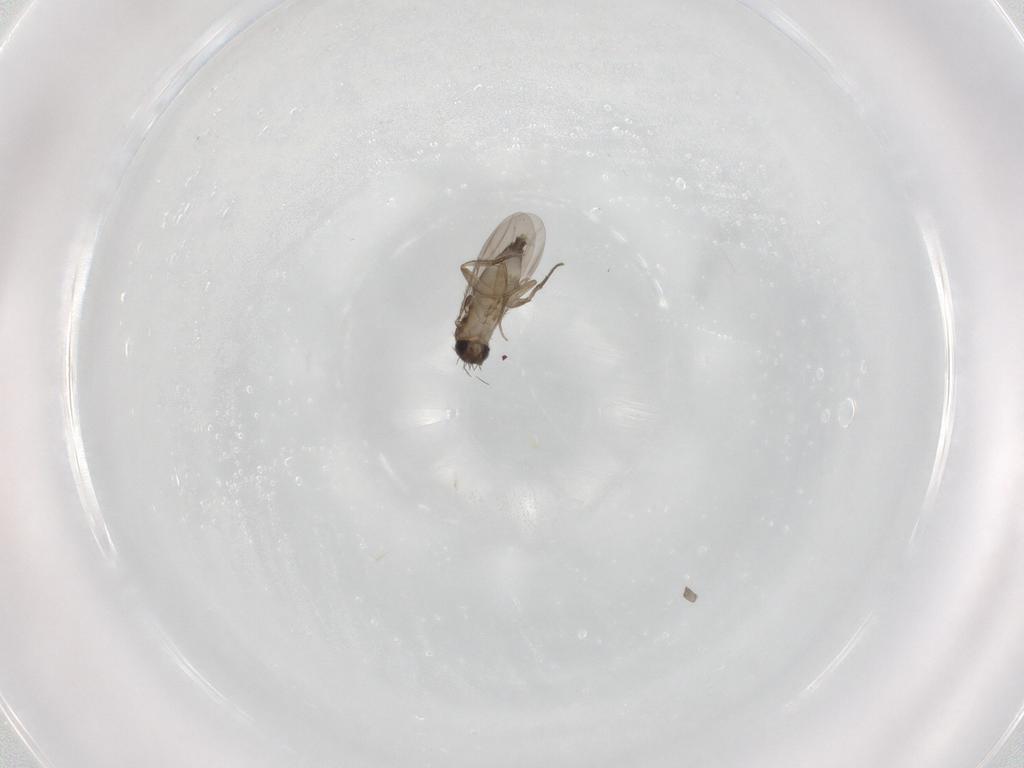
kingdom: Animalia
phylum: Arthropoda
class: Insecta
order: Diptera
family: Phoridae
